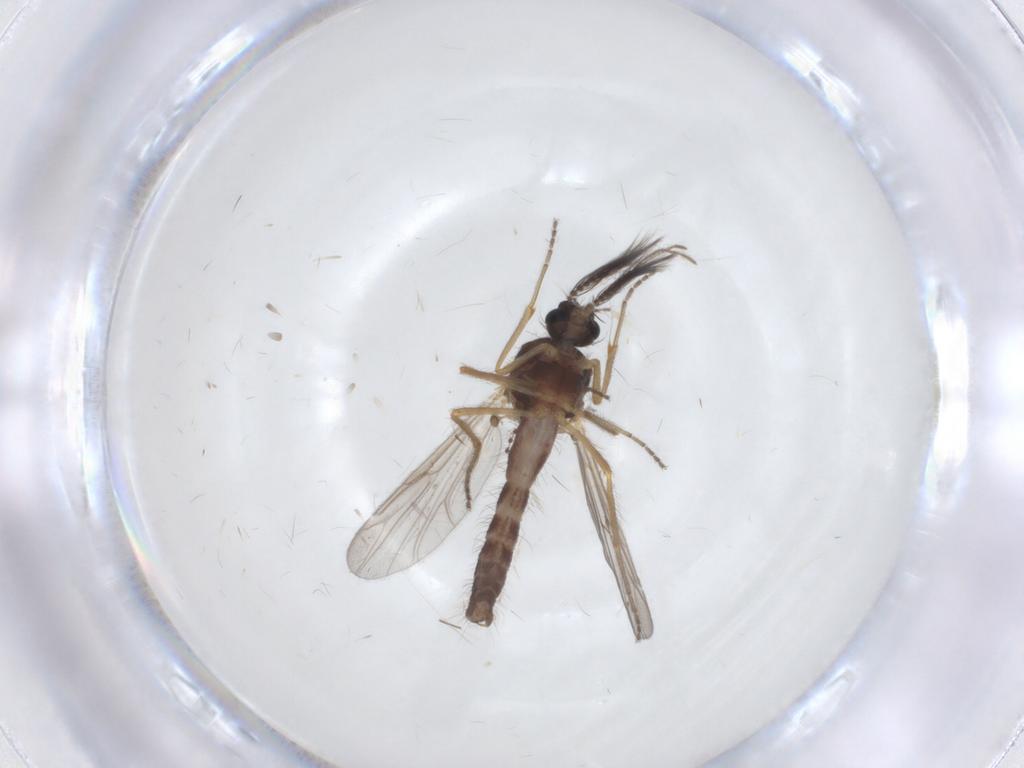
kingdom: Animalia
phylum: Arthropoda
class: Insecta
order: Diptera
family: Ceratopogonidae
